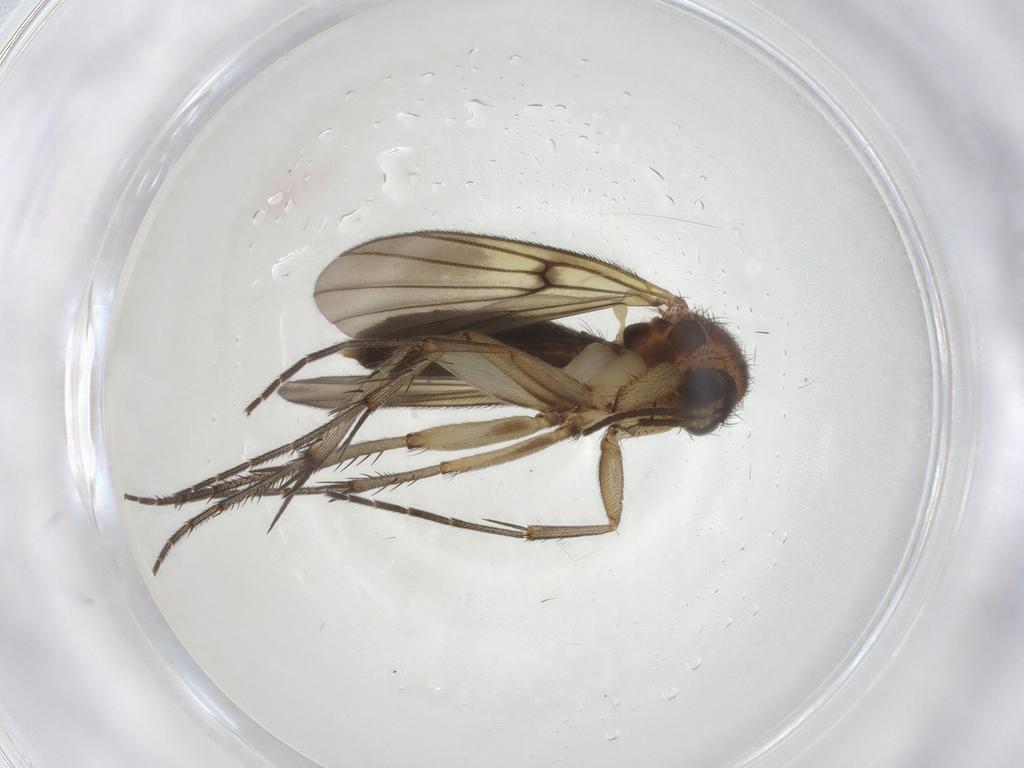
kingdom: Animalia
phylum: Arthropoda
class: Insecta
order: Diptera
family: Mycetophilidae
